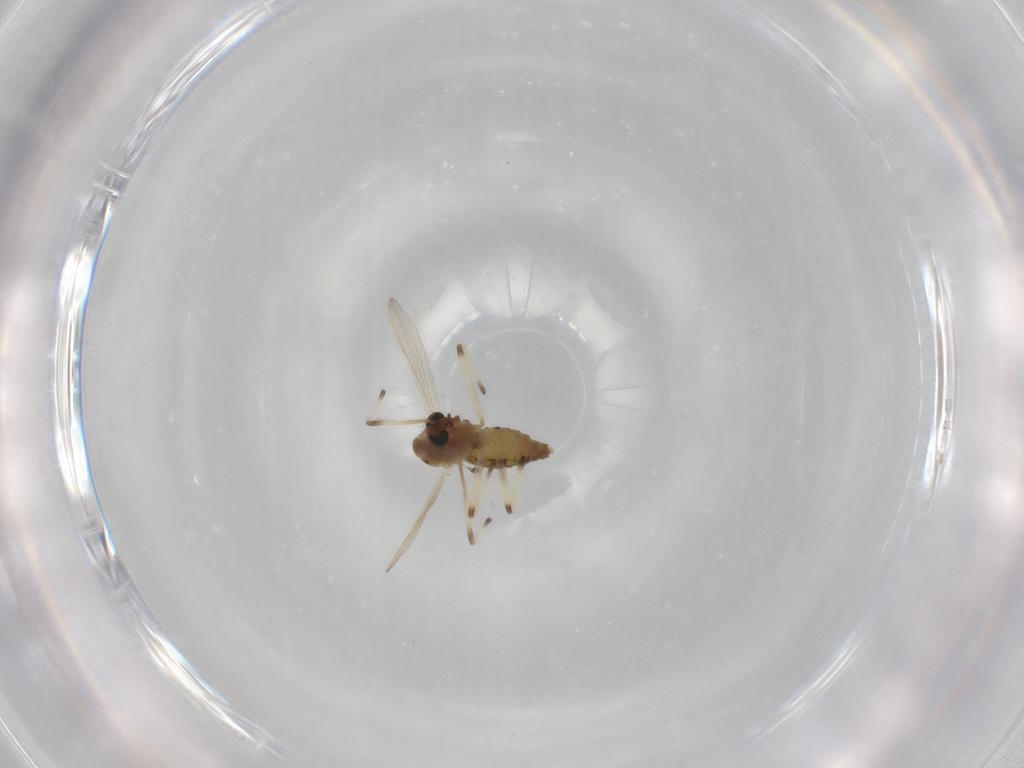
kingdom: Animalia
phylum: Arthropoda
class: Insecta
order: Diptera
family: Chironomidae
